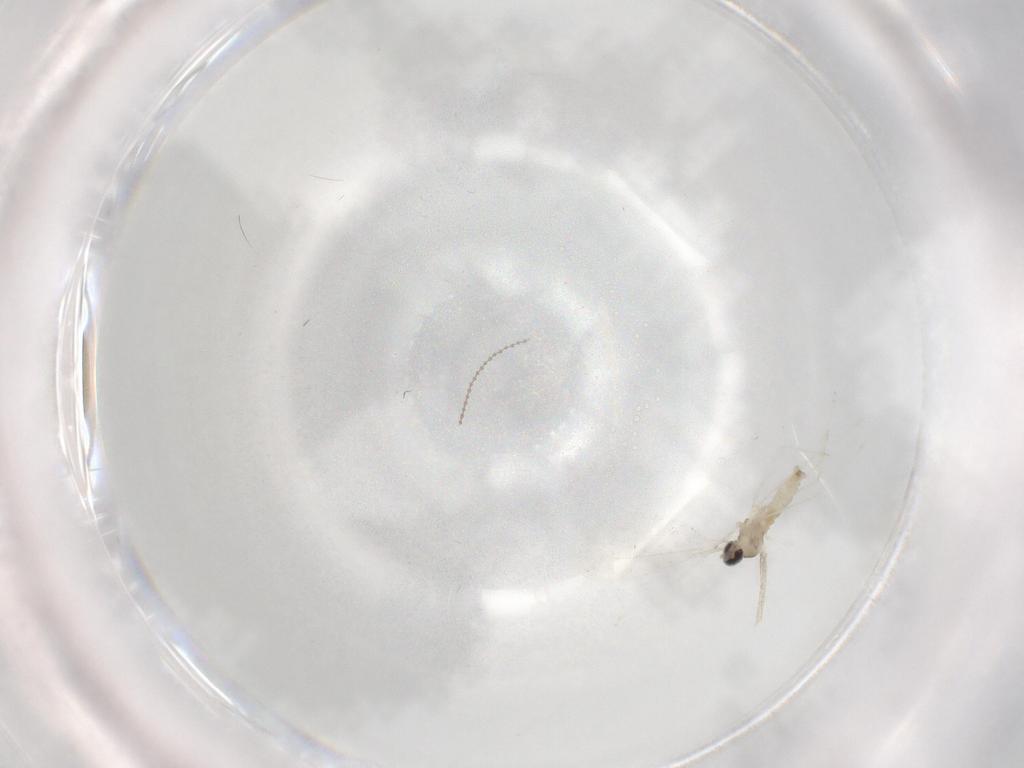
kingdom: Animalia
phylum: Arthropoda
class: Insecta
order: Diptera
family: Cecidomyiidae
